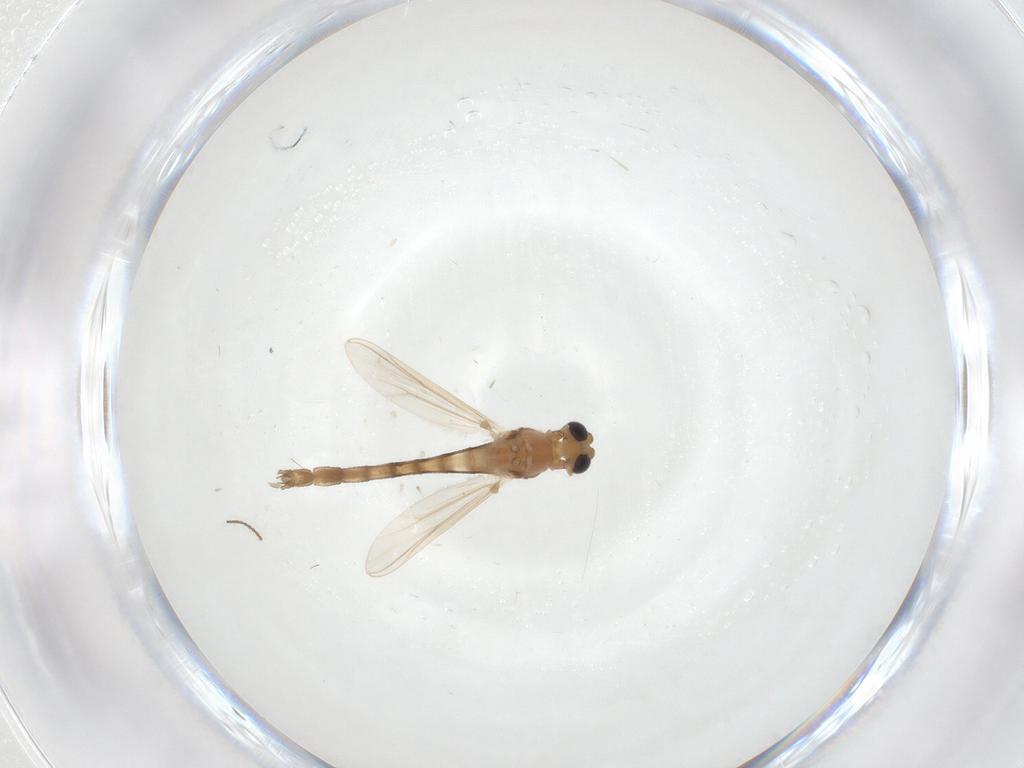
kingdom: Animalia
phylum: Arthropoda
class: Insecta
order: Diptera
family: Chironomidae
